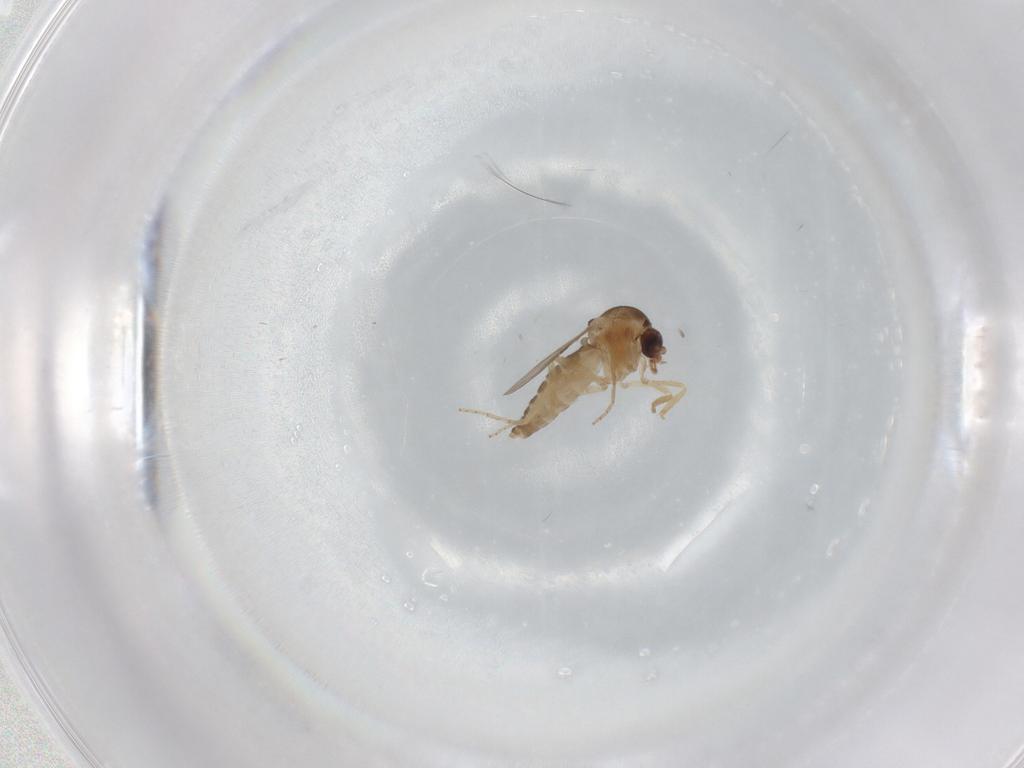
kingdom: Animalia
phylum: Arthropoda
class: Insecta
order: Diptera
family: Ceratopogonidae
